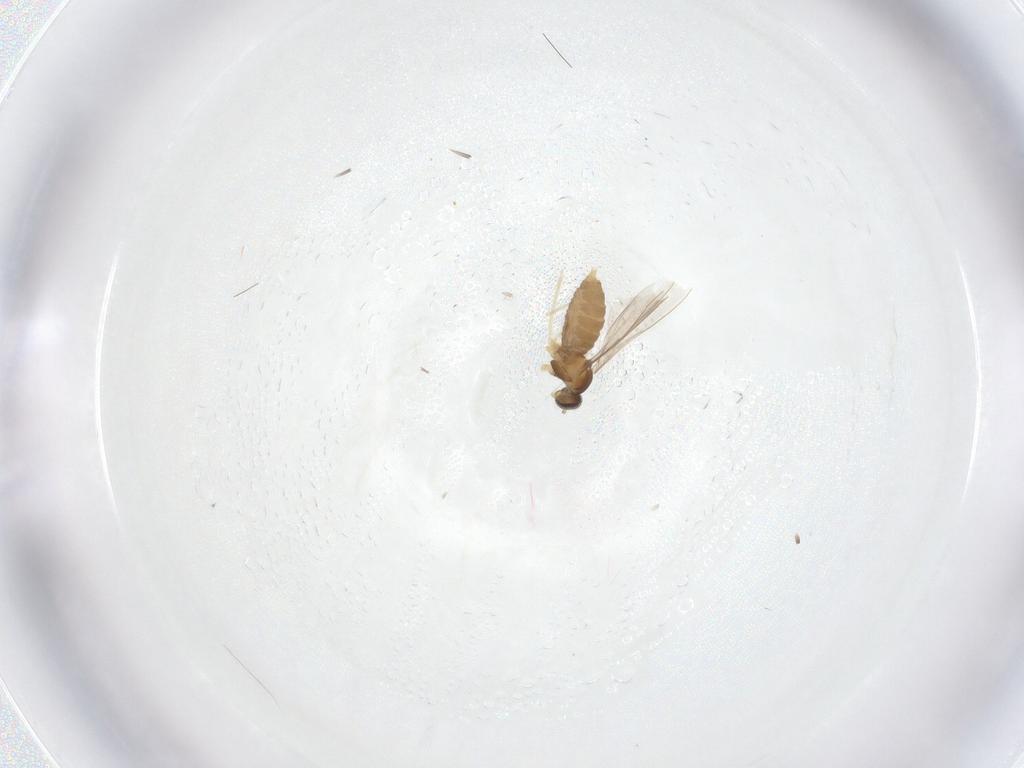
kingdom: Animalia
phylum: Arthropoda
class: Insecta
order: Diptera
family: Cecidomyiidae
